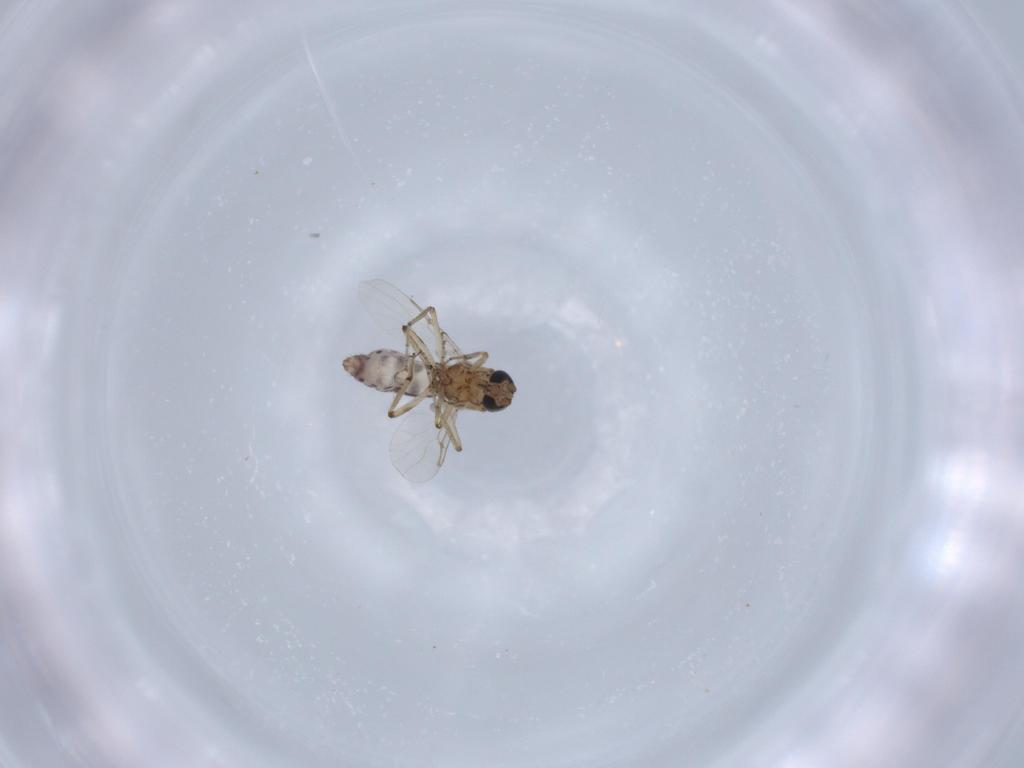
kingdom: Animalia
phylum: Arthropoda
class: Insecta
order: Diptera
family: Ceratopogonidae
